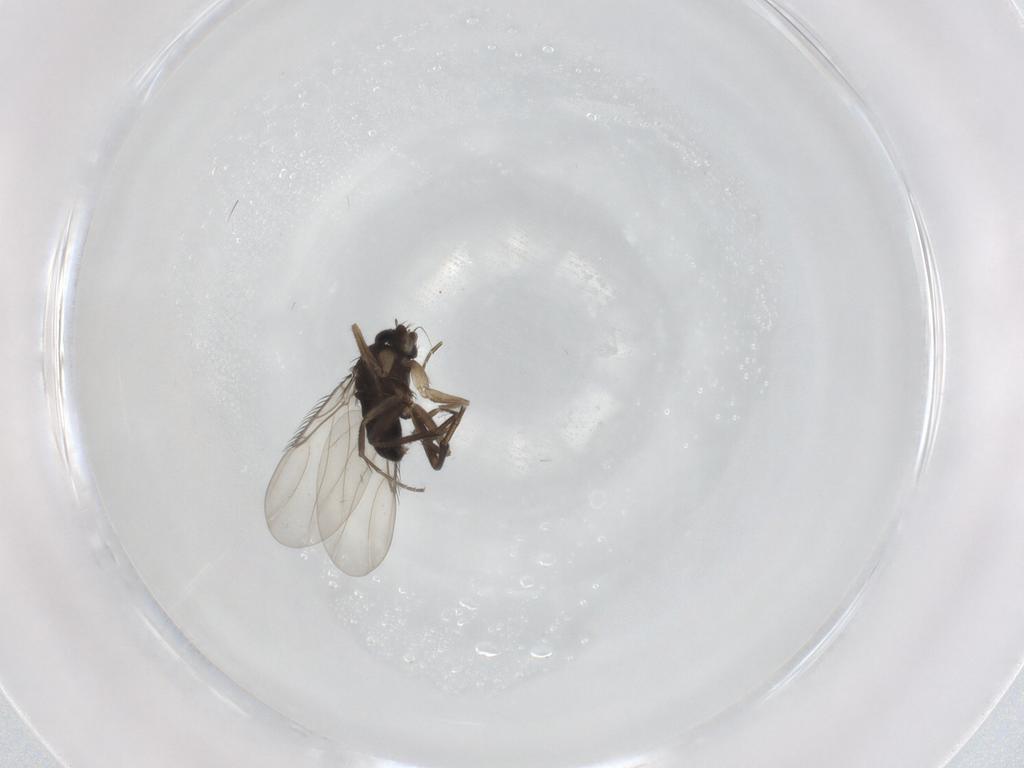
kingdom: Animalia
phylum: Arthropoda
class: Insecta
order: Diptera
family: Phoridae
